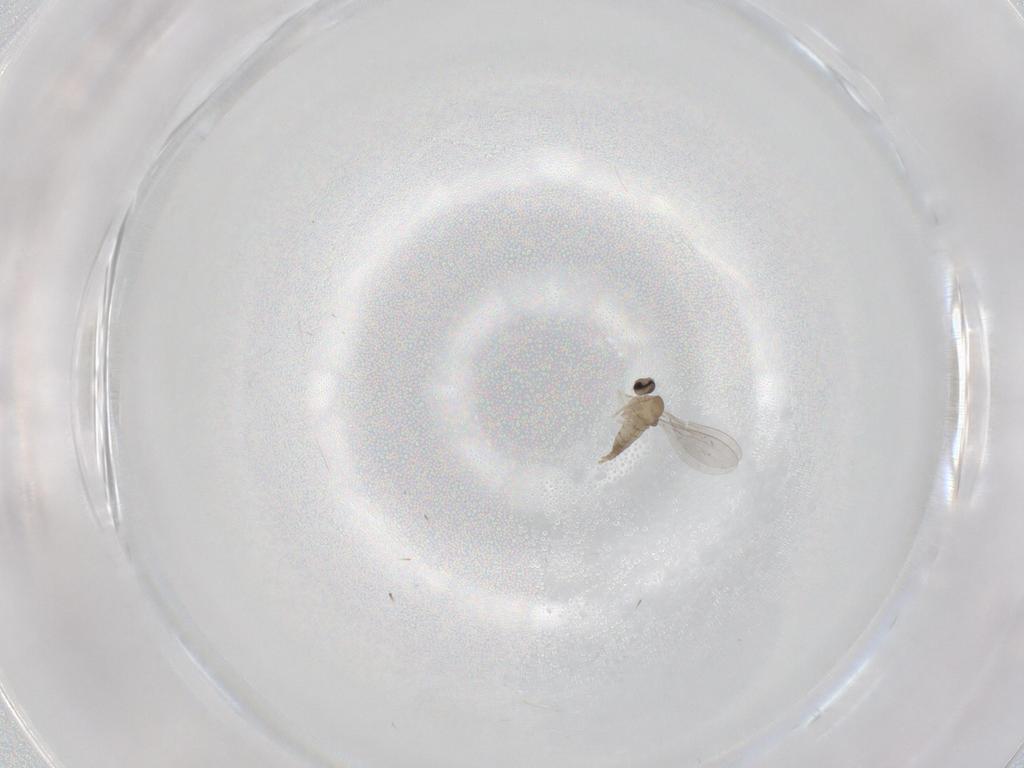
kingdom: Animalia
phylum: Arthropoda
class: Insecta
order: Diptera
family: Cecidomyiidae
